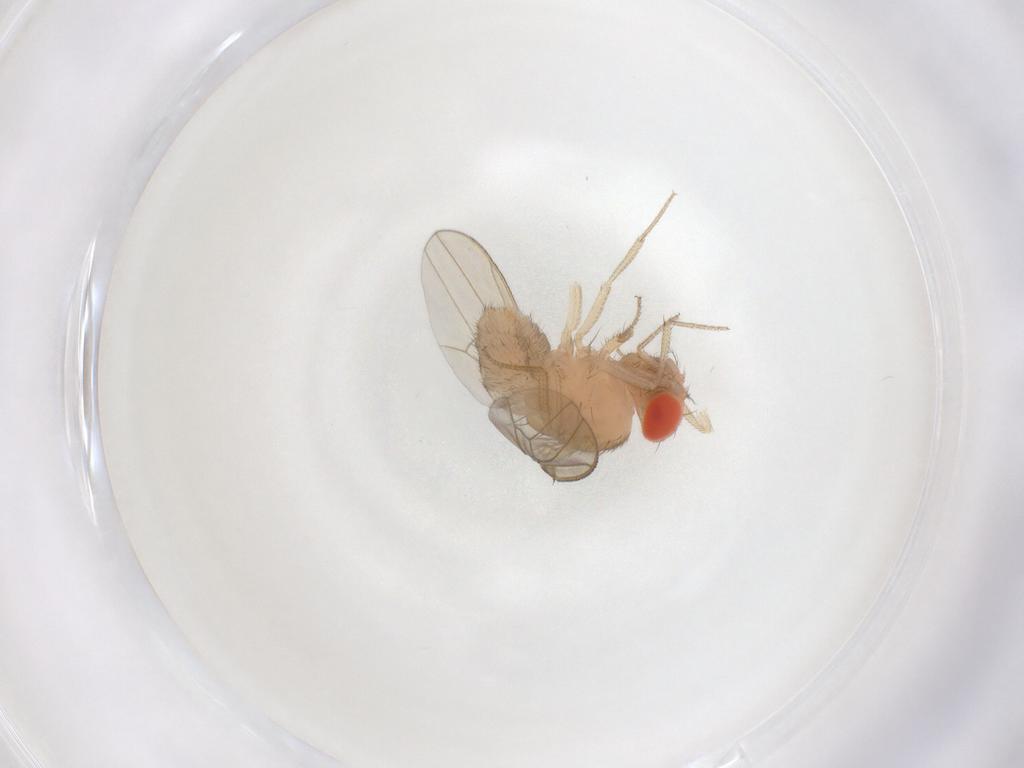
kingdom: Animalia
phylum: Arthropoda
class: Insecta
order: Diptera
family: Drosophilidae
